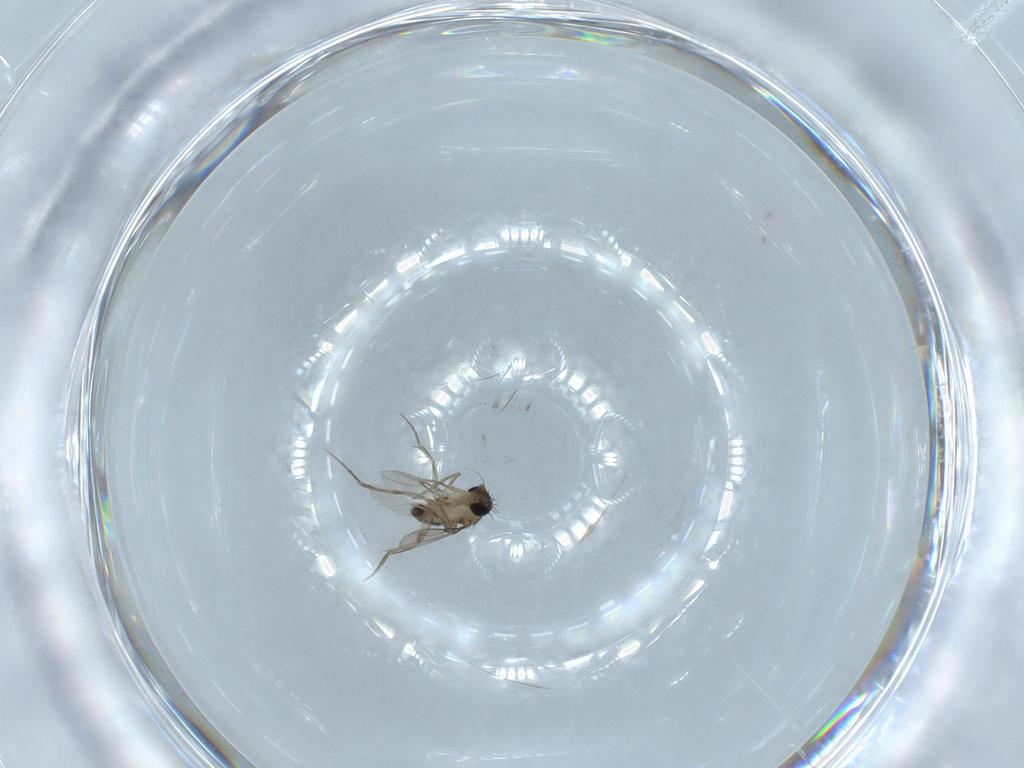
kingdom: Animalia
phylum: Arthropoda
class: Insecta
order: Diptera
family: Phoridae
